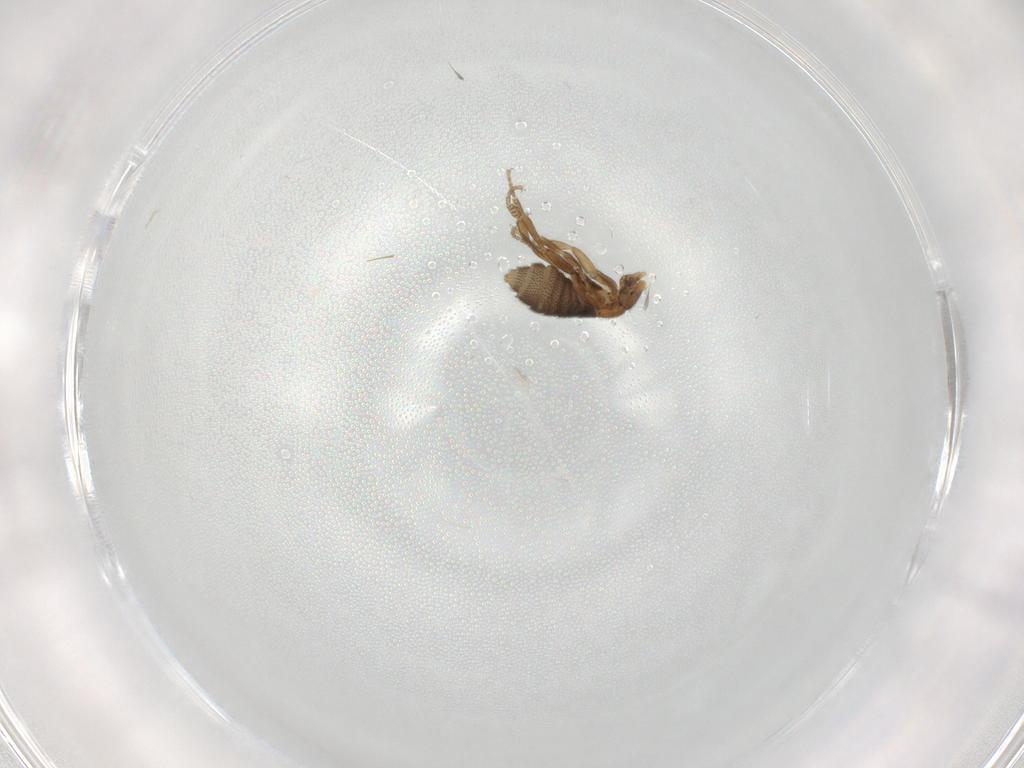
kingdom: Animalia
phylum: Arthropoda
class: Insecta
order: Diptera
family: Phoridae
